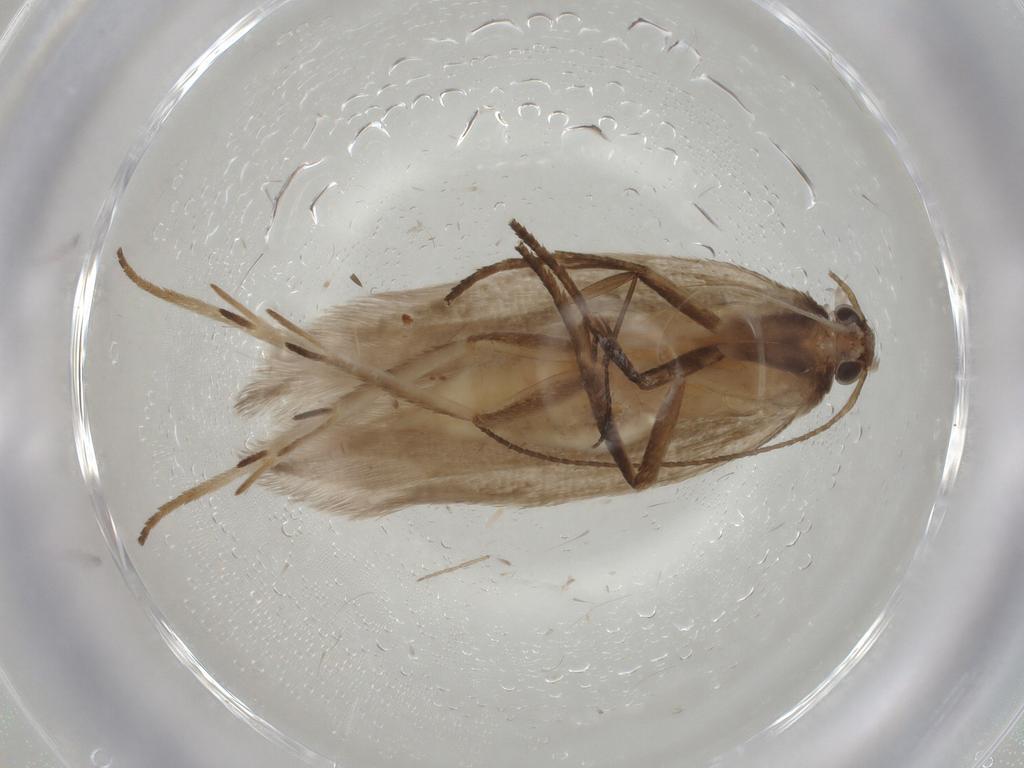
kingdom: Animalia
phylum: Arthropoda
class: Insecta
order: Lepidoptera
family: Gelechiidae
